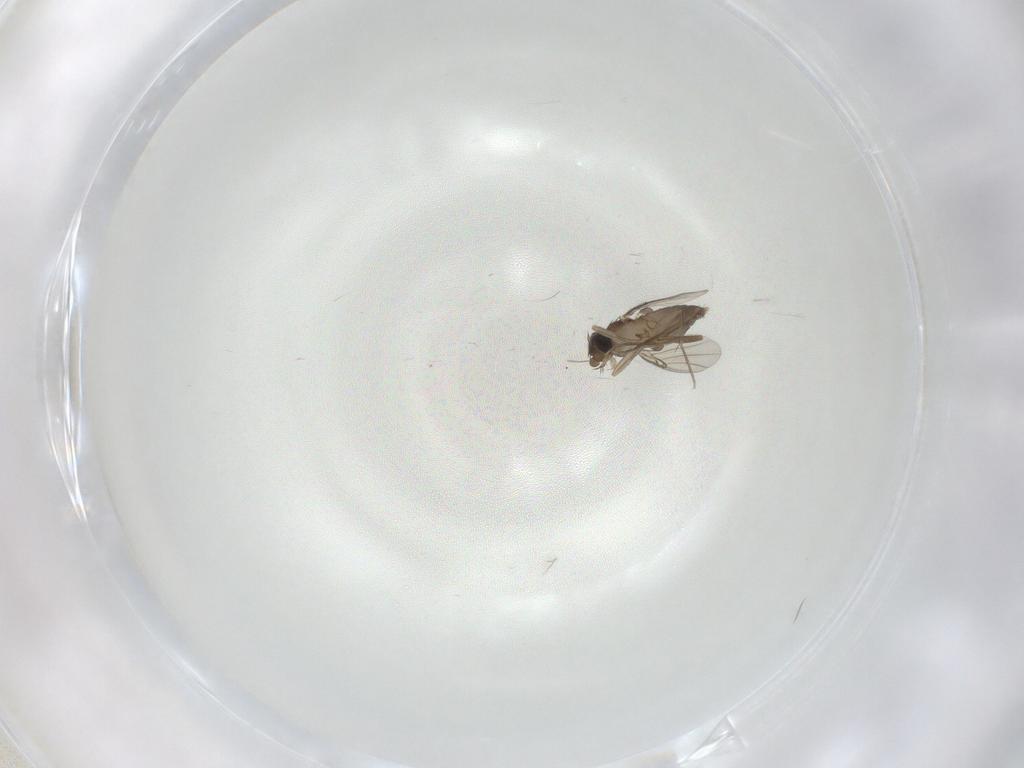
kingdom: Animalia
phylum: Arthropoda
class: Insecta
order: Diptera
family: Phoridae
